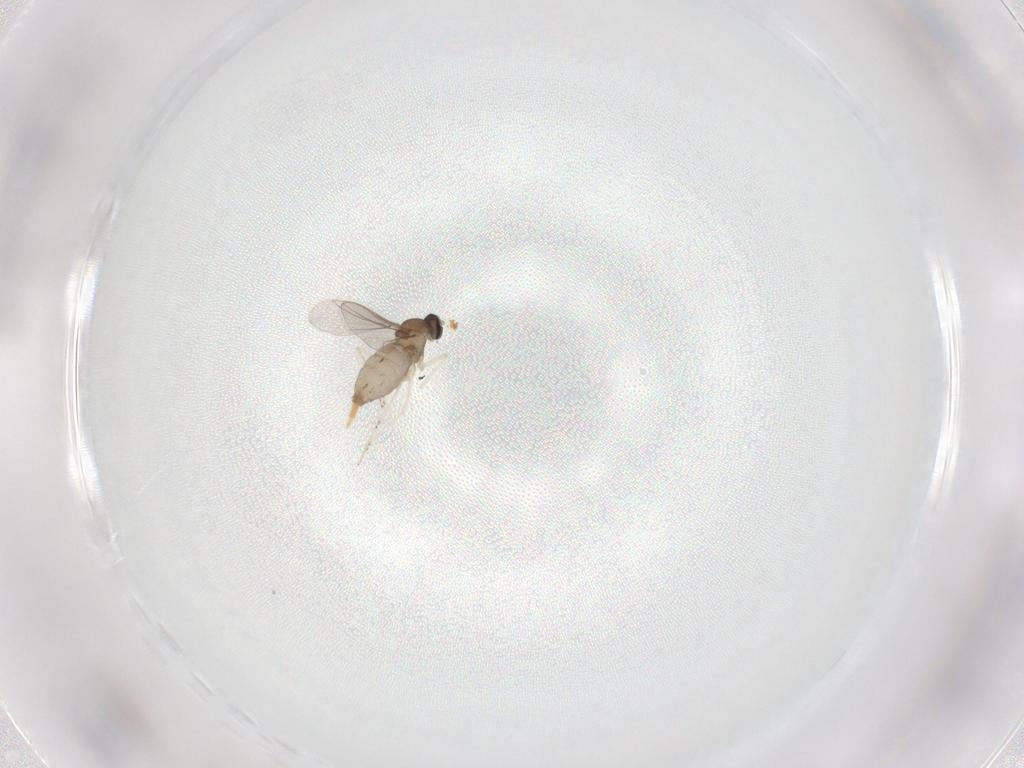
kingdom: Animalia
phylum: Arthropoda
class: Insecta
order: Diptera
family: Cecidomyiidae
